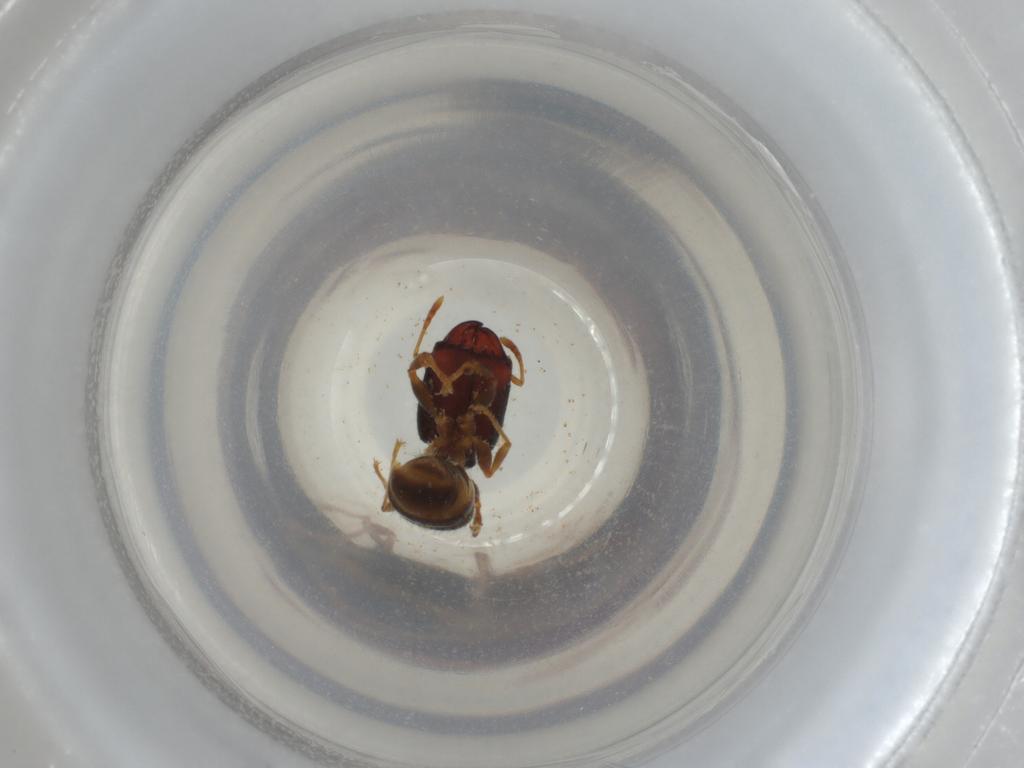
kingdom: Animalia
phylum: Arthropoda
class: Insecta
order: Hymenoptera
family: Formicidae
